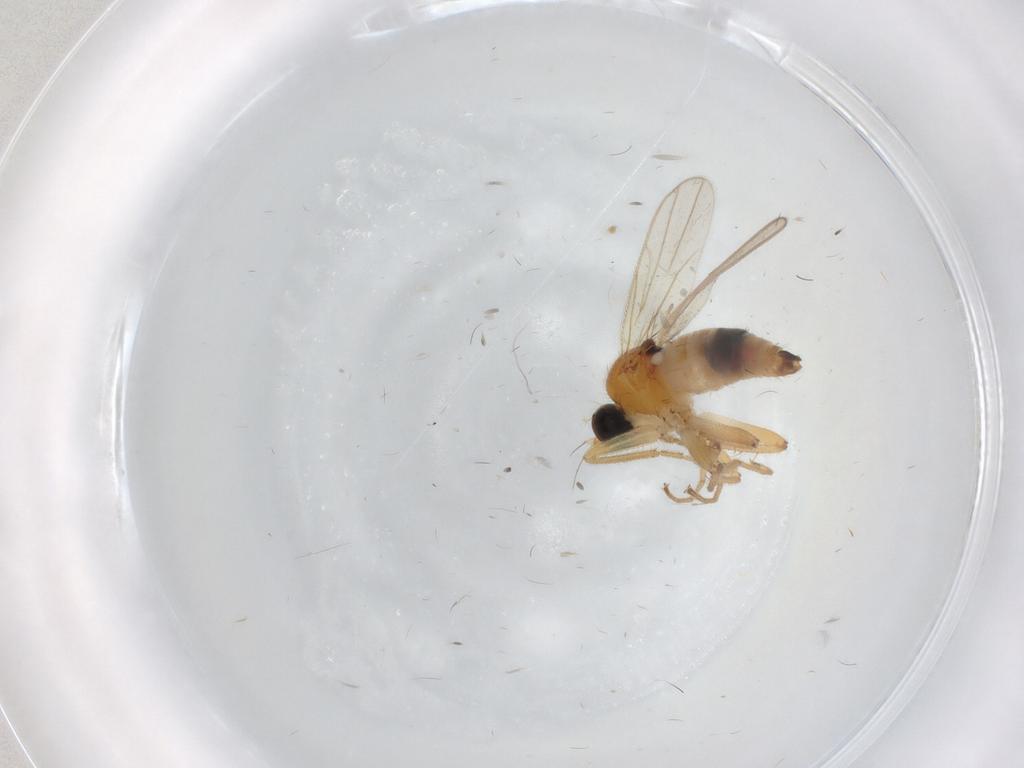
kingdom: Animalia
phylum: Arthropoda
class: Insecta
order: Diptera
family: Hybotidae
